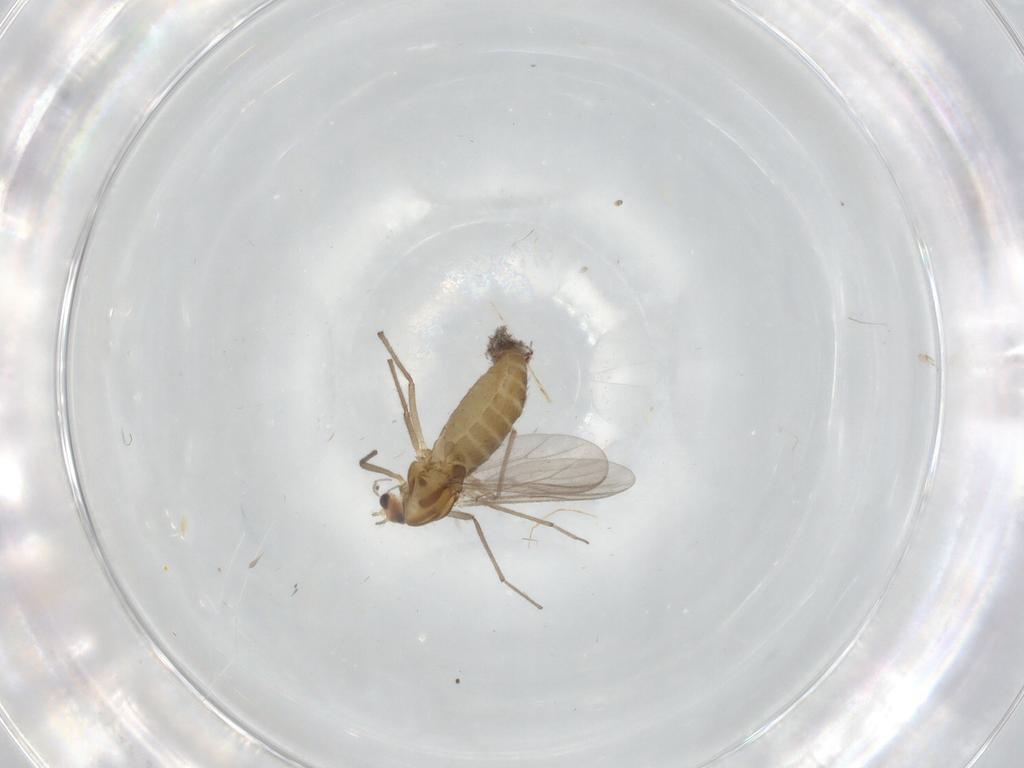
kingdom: Animalia
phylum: Arthropoda
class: Insecta
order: Diptera
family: Chironomidae
